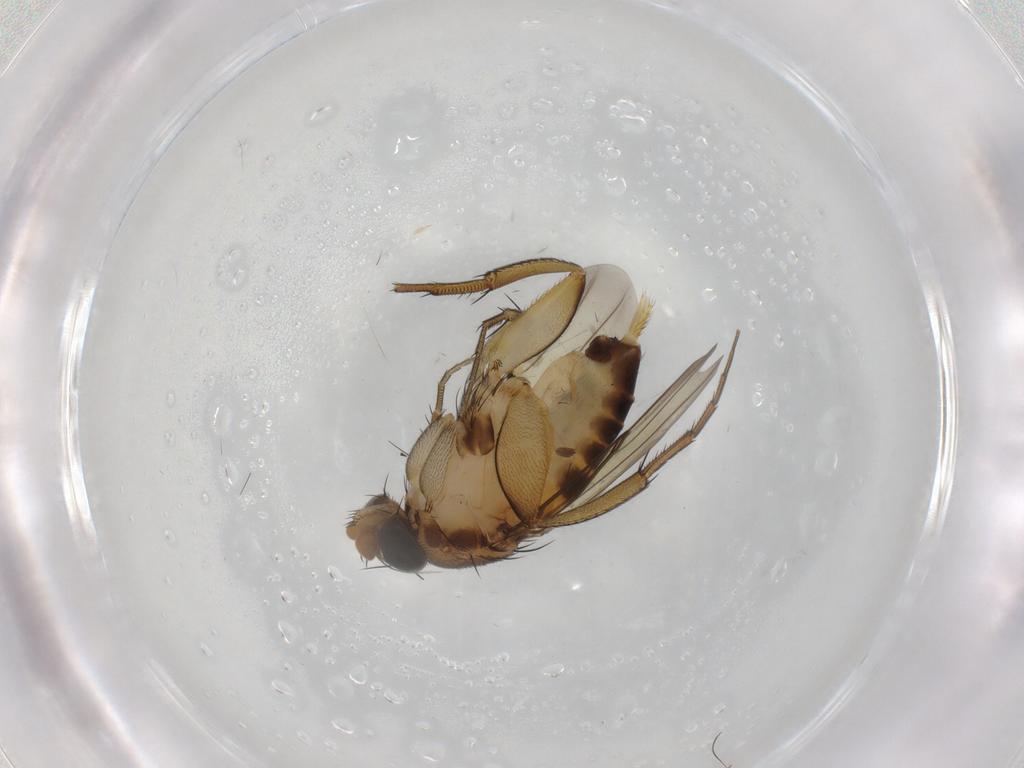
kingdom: Animalia
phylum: Arthropoda
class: Insecta
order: Diptera
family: Phoridae
